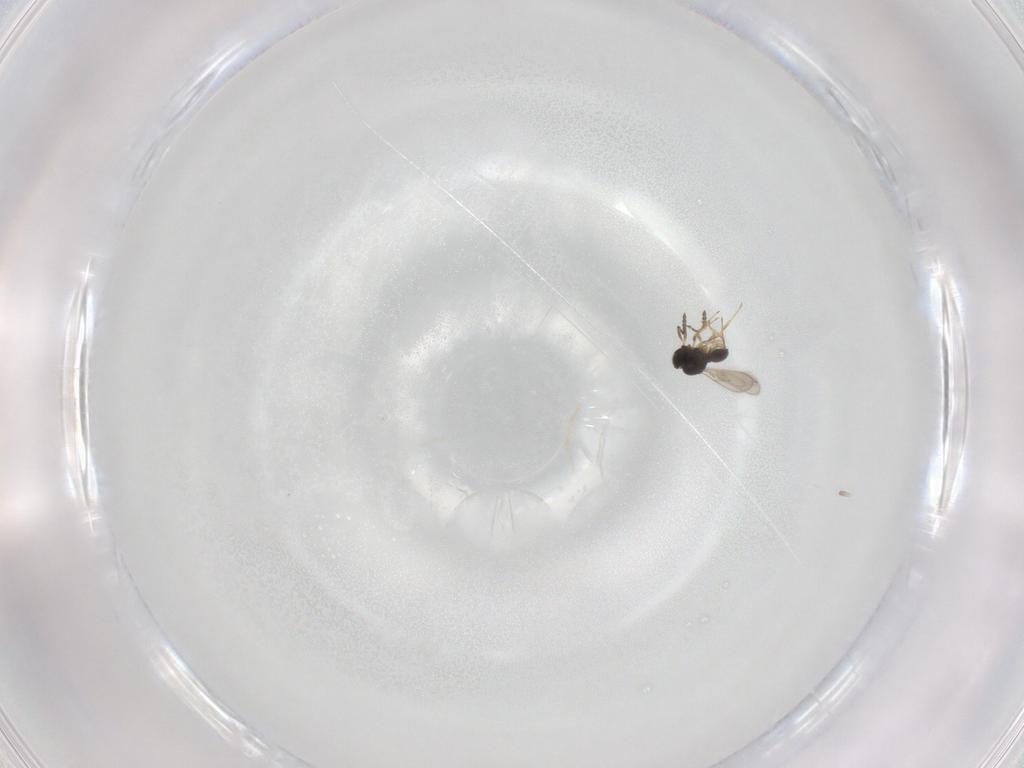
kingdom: Animalia
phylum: Arthropoda
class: Insecta
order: Hymenoptera
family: Scelionidae
